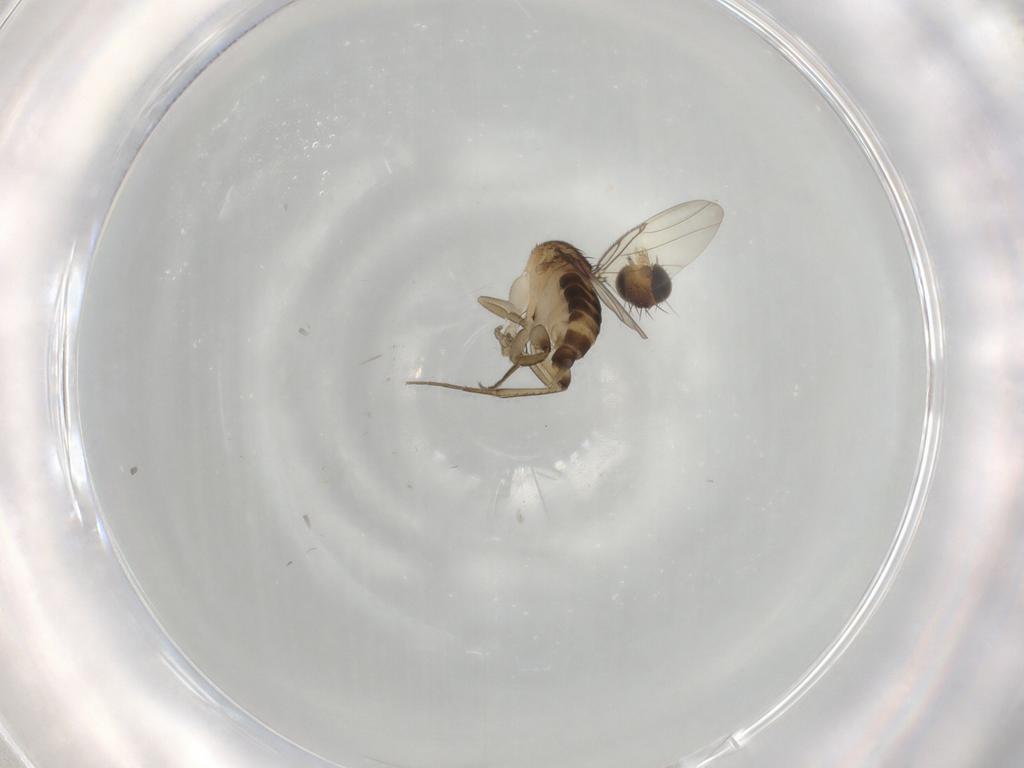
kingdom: Animalia
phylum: Arthropoda
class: Insecta
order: Diptera
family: Phoridae
